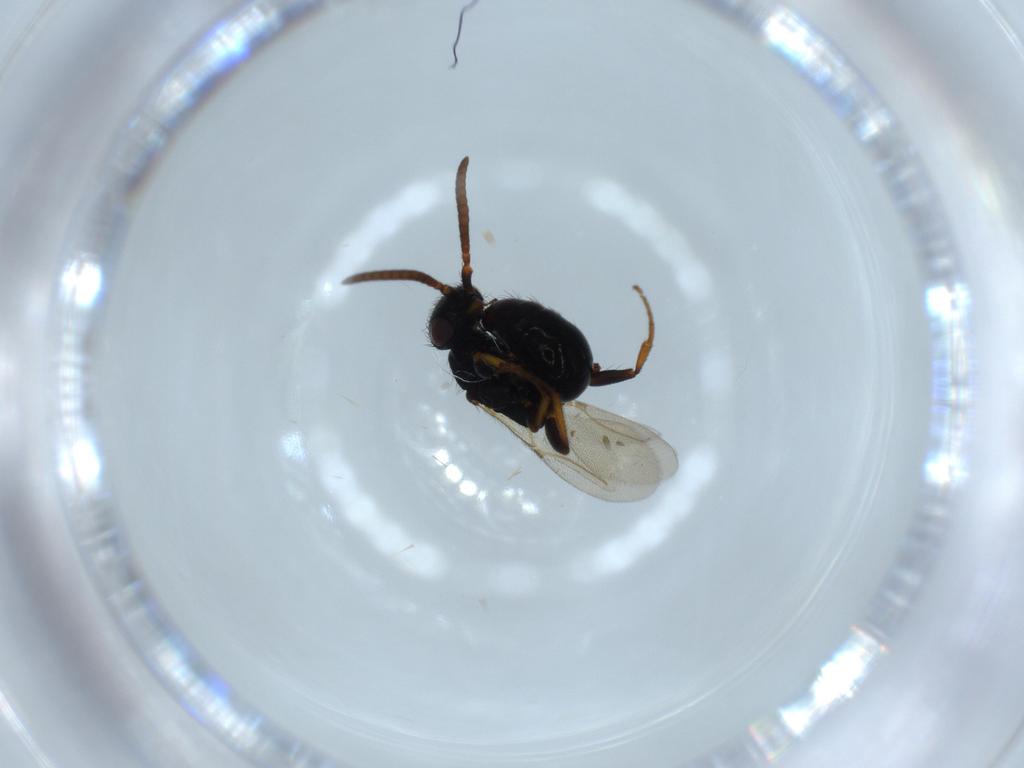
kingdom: Animalia
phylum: Arthropoda
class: Insecta
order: Hymenoptera
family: Bethylidae
